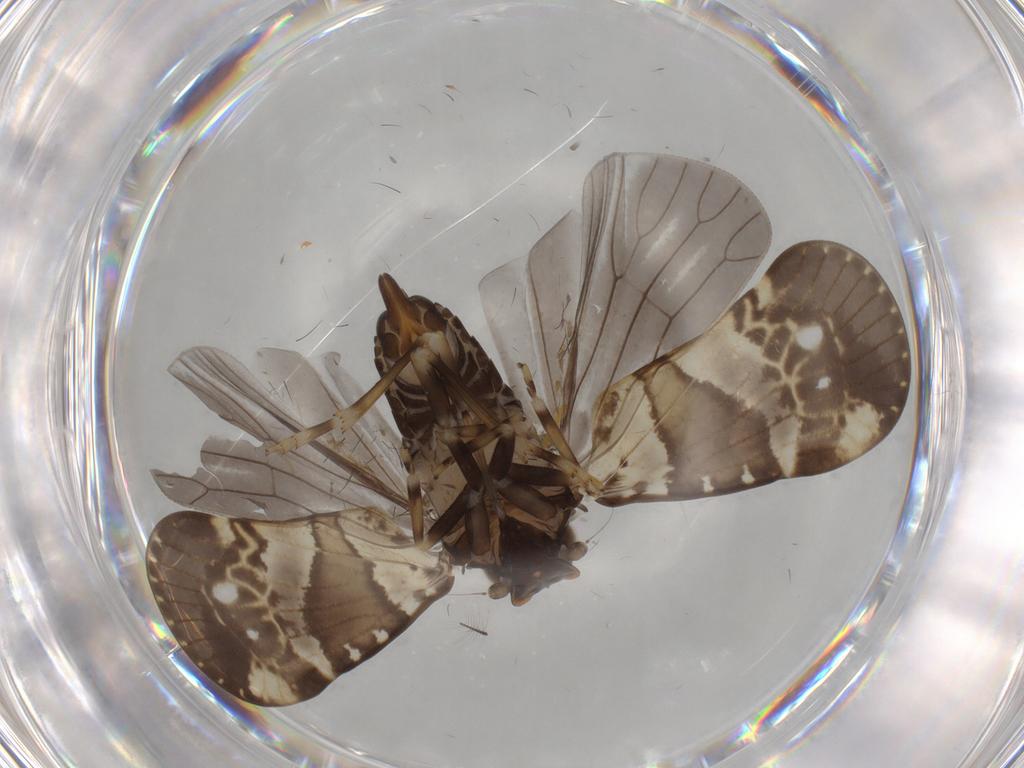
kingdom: Animalia
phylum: Arthropoda
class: Insecta
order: Hemiptera
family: Cixiidae
